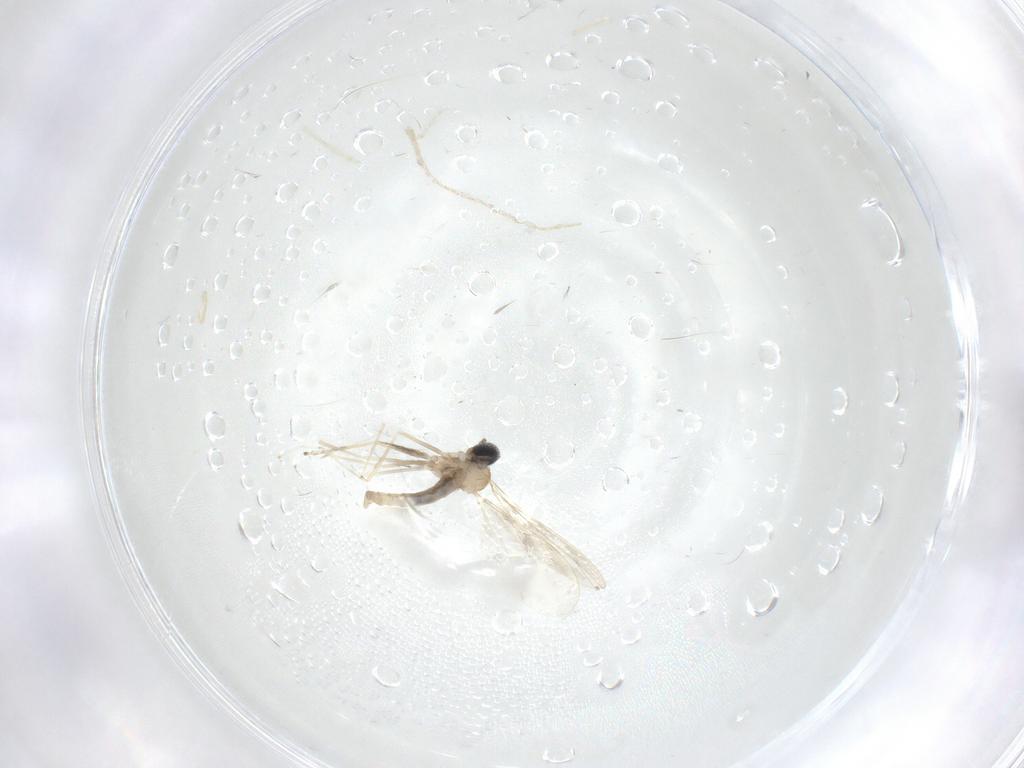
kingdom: Animalia
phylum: Arthropoda
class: Insecta
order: Diptera
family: Cecidomyiidae
